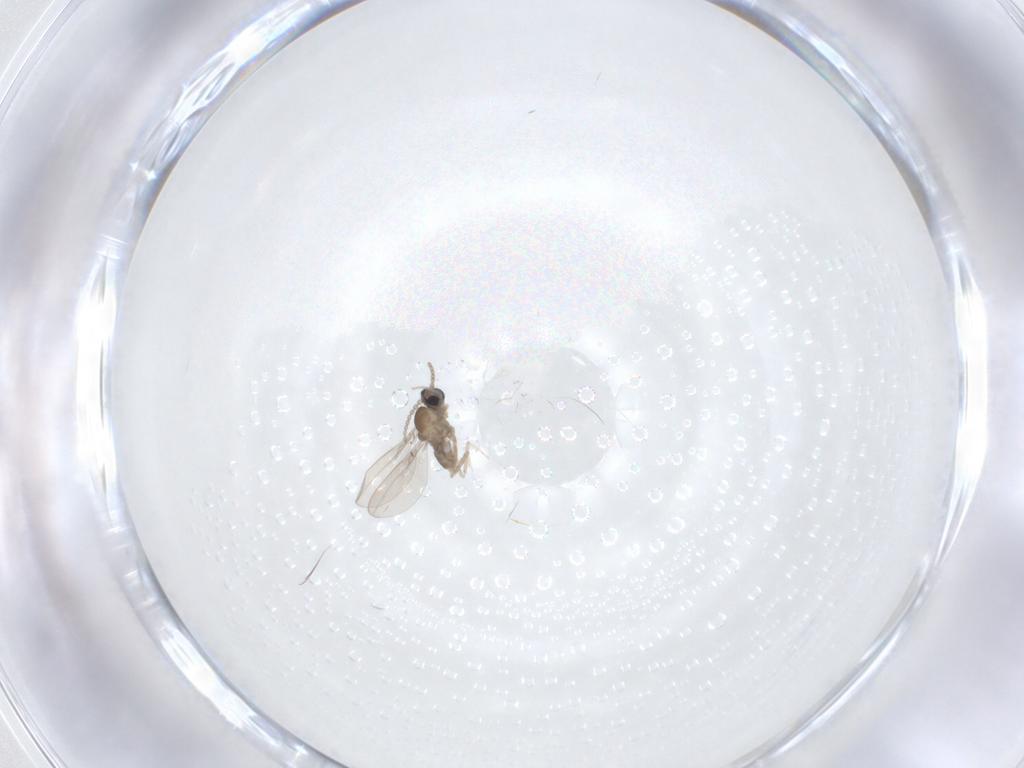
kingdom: Animalia
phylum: Arthropoda
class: Insecta
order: Diptera
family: Cecidomyiidae
